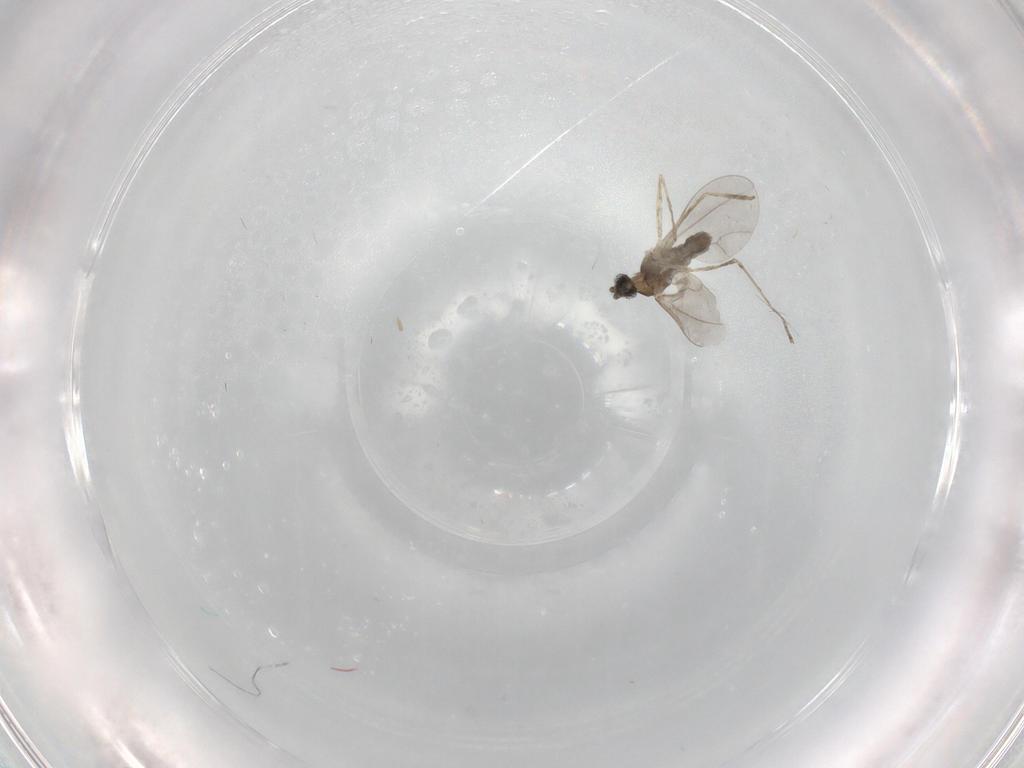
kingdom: Animalia
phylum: Arthropoda
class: Insecta
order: Diptera
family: Cecidomyiidae
